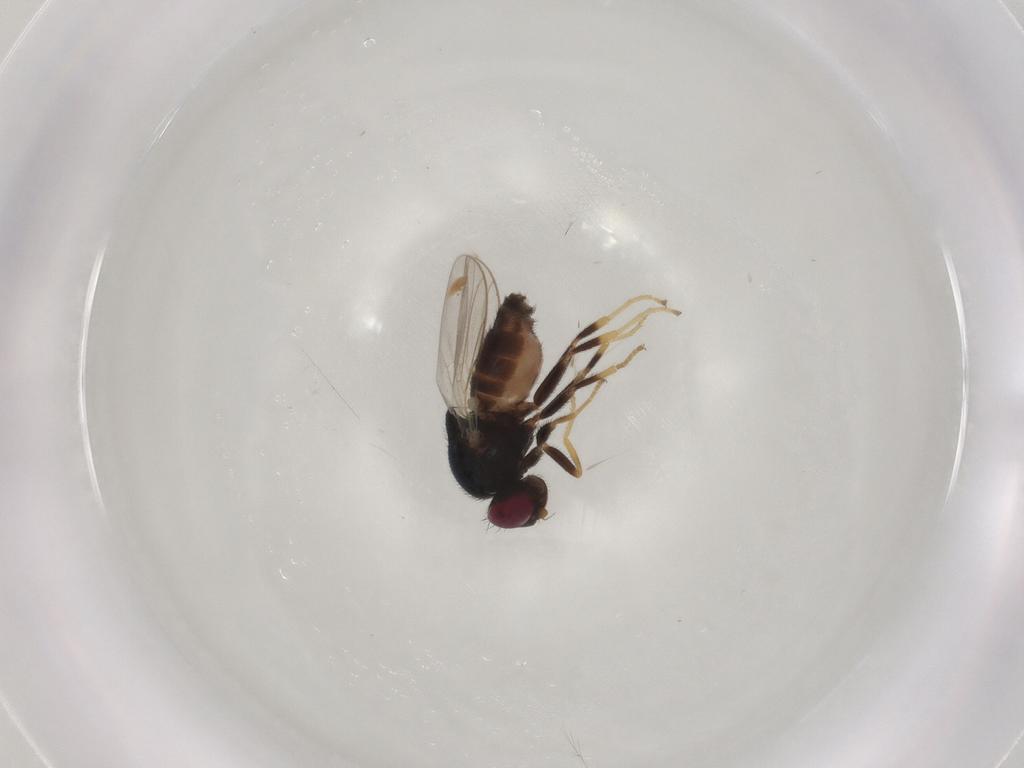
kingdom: Animalia
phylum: Arthropoda
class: Insecta
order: Diptera
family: Chloropidae
